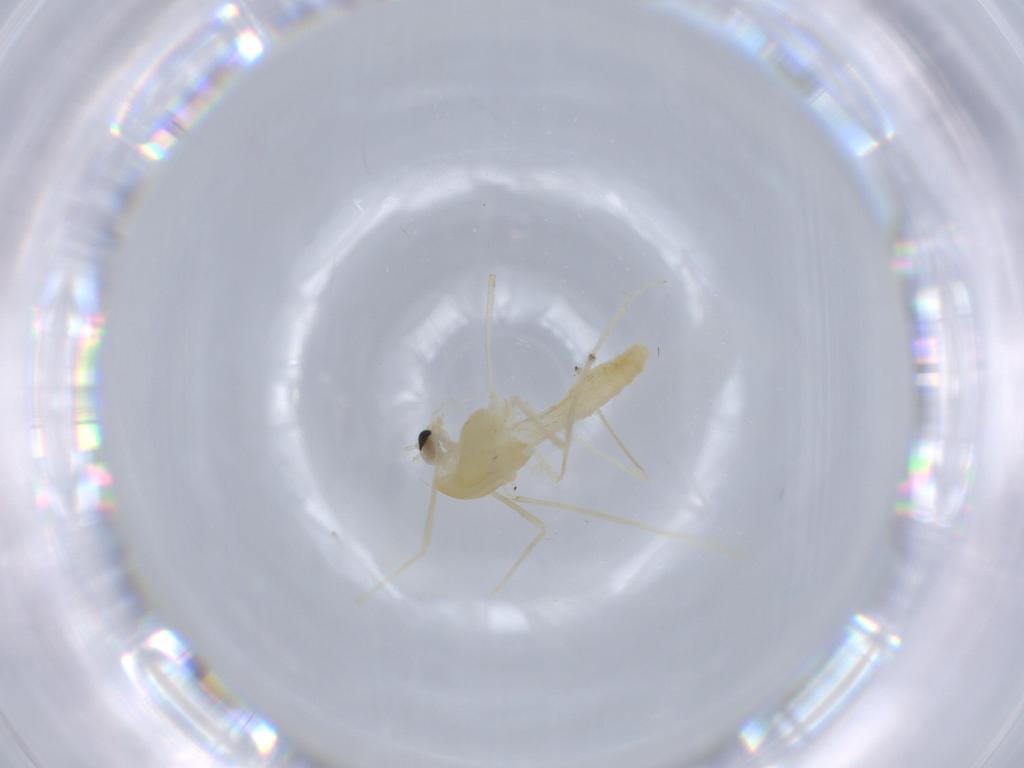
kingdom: Animalia
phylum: Arthropoda
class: Insecta
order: Diptera
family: Chironomidae
